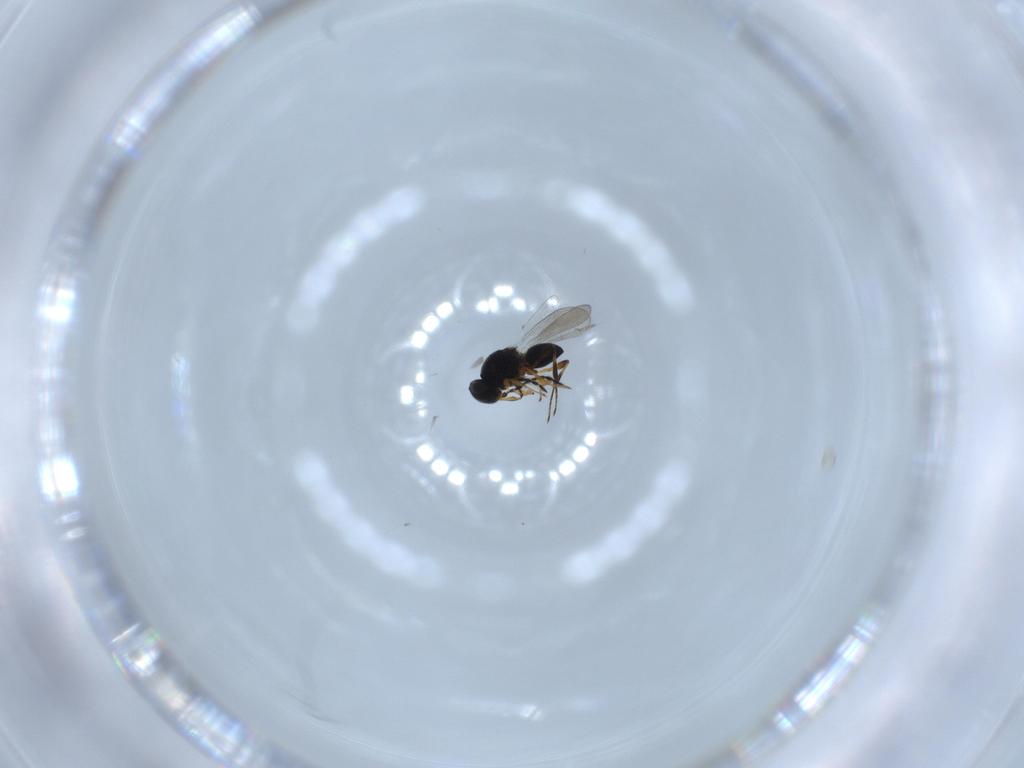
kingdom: Animalia
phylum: Arthropoda
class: Insecta
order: Hymenoptera
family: Platygastridae
